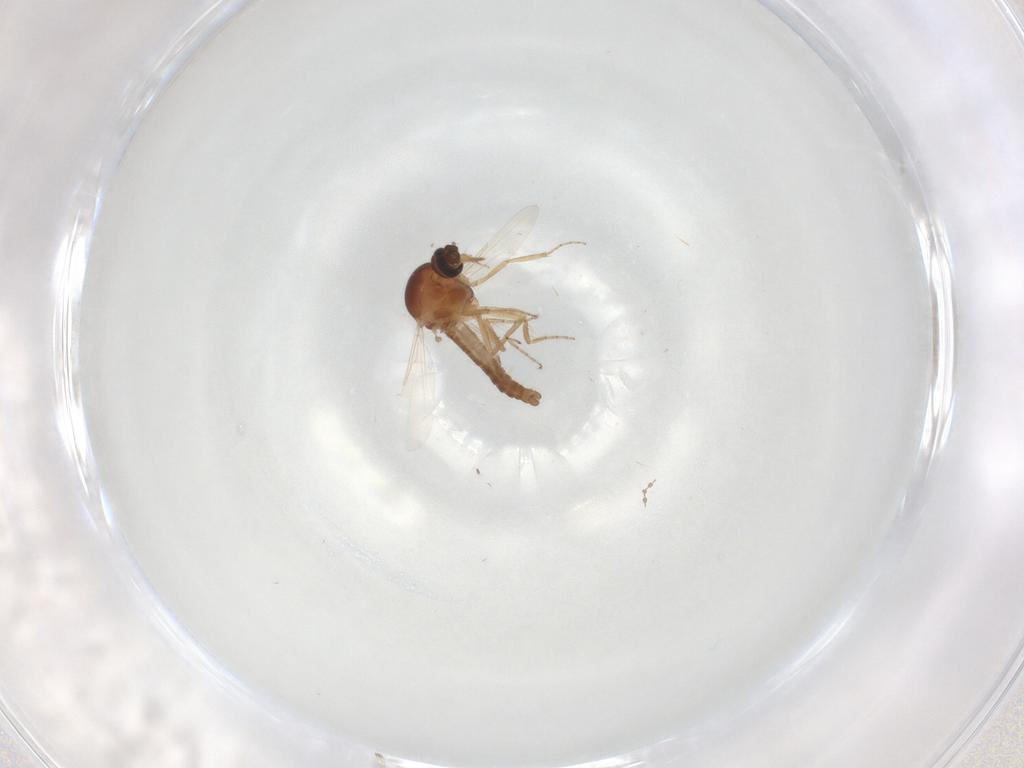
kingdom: Animalia
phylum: Arthropoda
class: Insecta
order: Diptera
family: Ceratopogonidae
